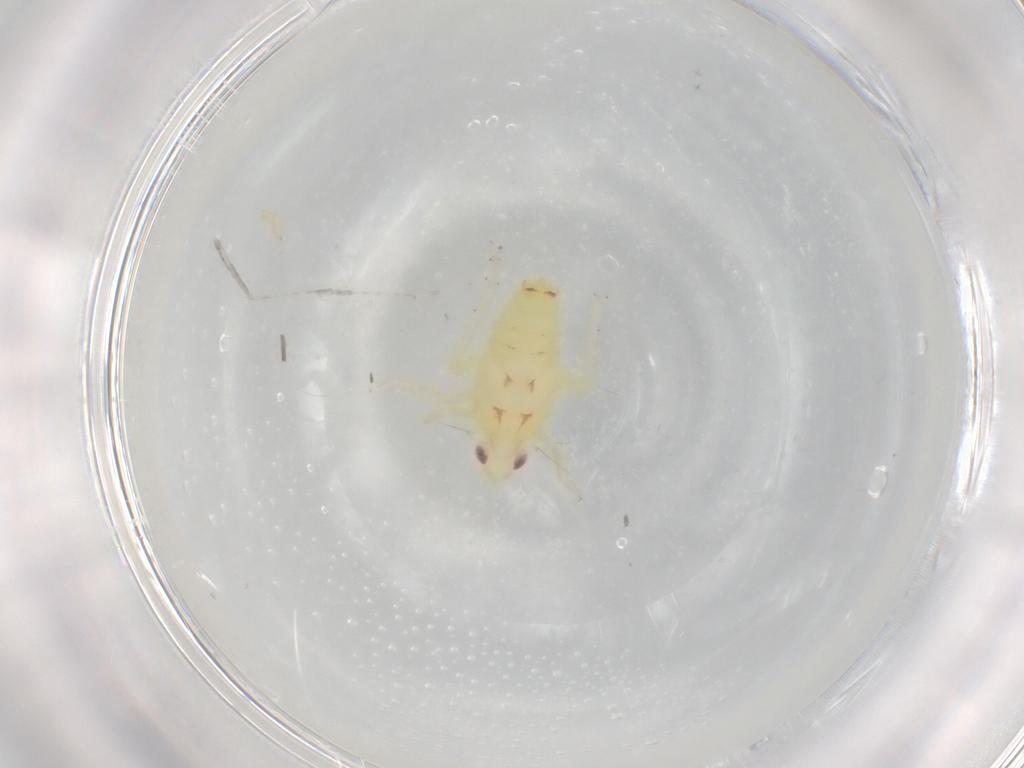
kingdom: Animalia
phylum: Arthropoda
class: Insecta
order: Hemiptera
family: Tropiduchidae
